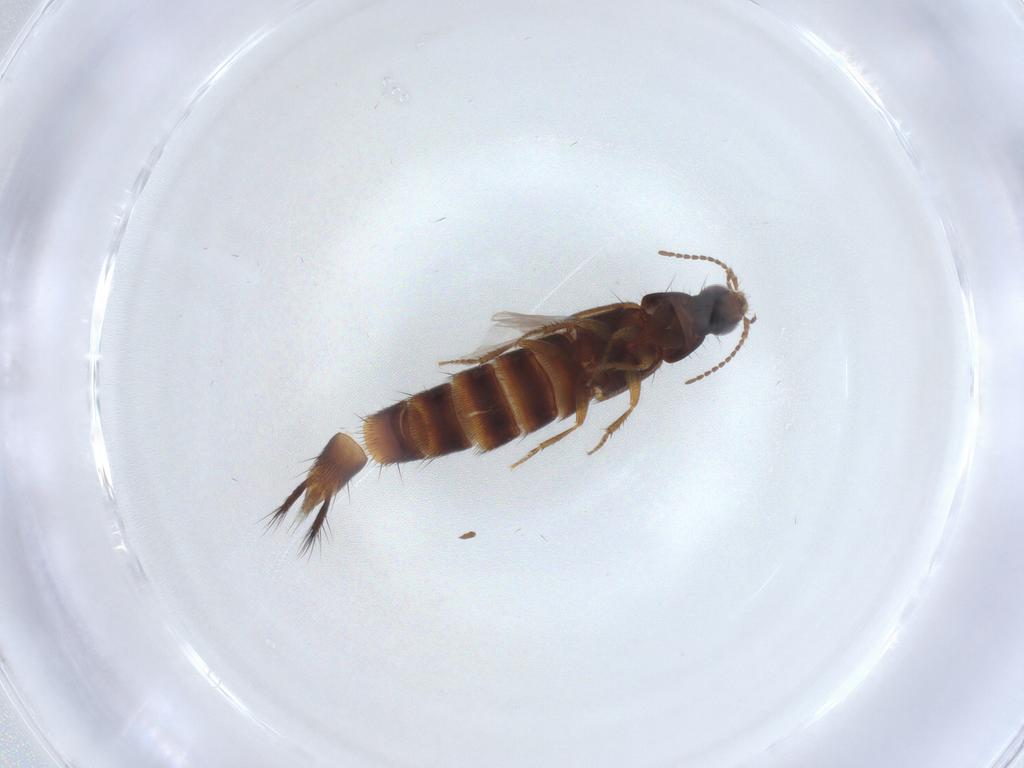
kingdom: Animalia
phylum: Arthropoda
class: Insecta
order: Coleoptera
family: Staphylinidae
